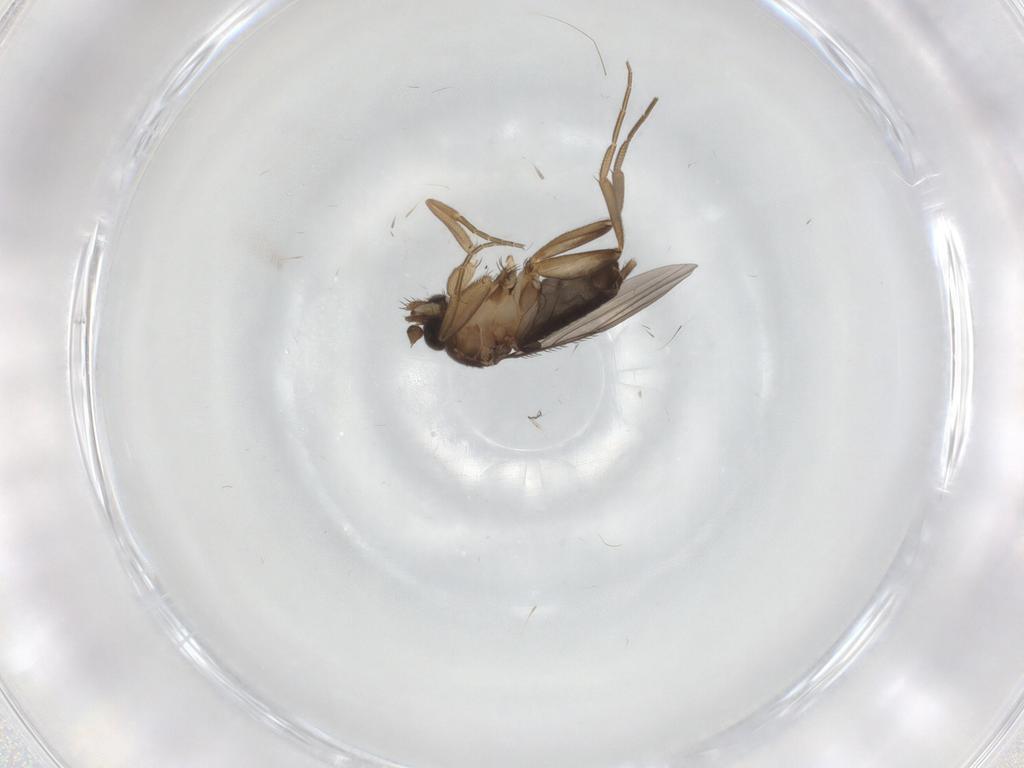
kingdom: Animalia
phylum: Arthropoda
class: Insecta
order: Diptera
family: Phoridae
